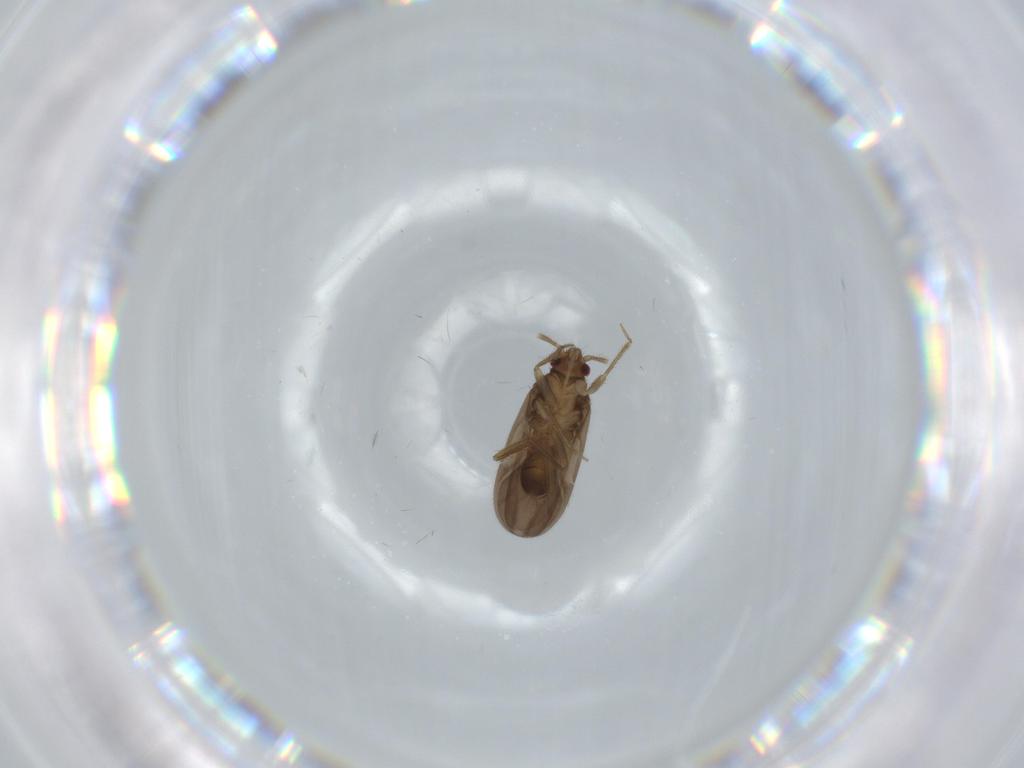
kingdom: Animalia
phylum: Arthropoda
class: Insecta
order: Hemiptera
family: Ceratocombidae
